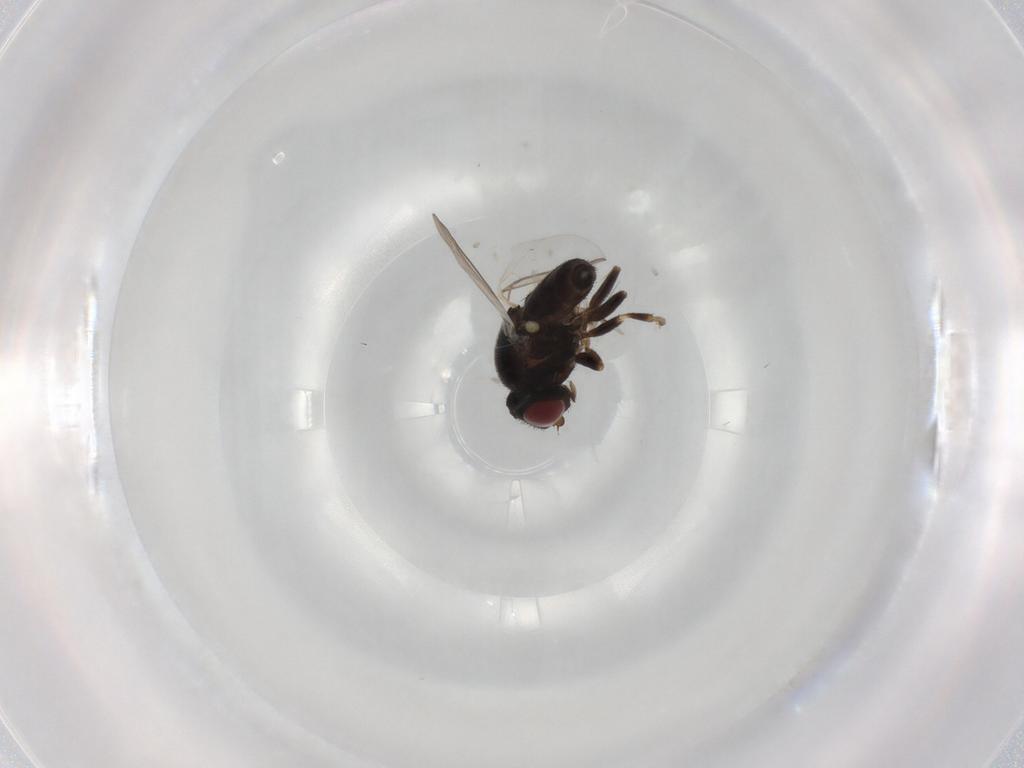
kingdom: Animalia
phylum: Arthropoda
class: Insecta
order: Diptera
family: Chloropidae
